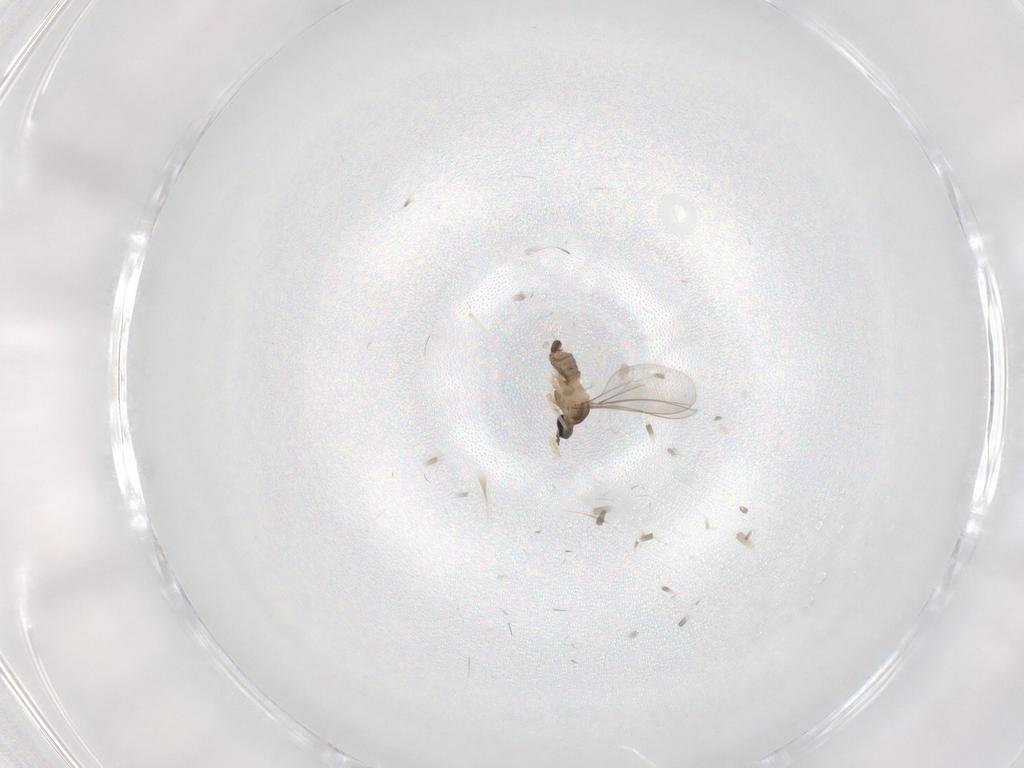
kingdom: Animalia
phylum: Arthropoda
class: Insecta
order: Diptera
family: Cecidomyiidae
